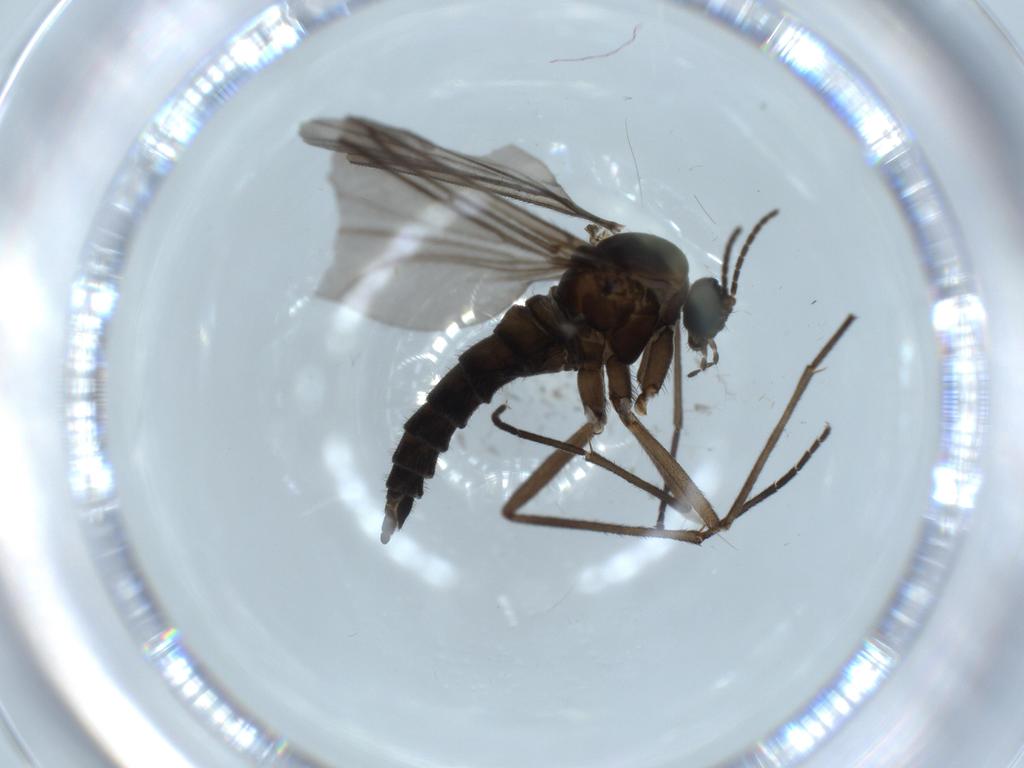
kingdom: Animalia
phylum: Arthropoda
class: Insecta
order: Diptera
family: Sciaridae
